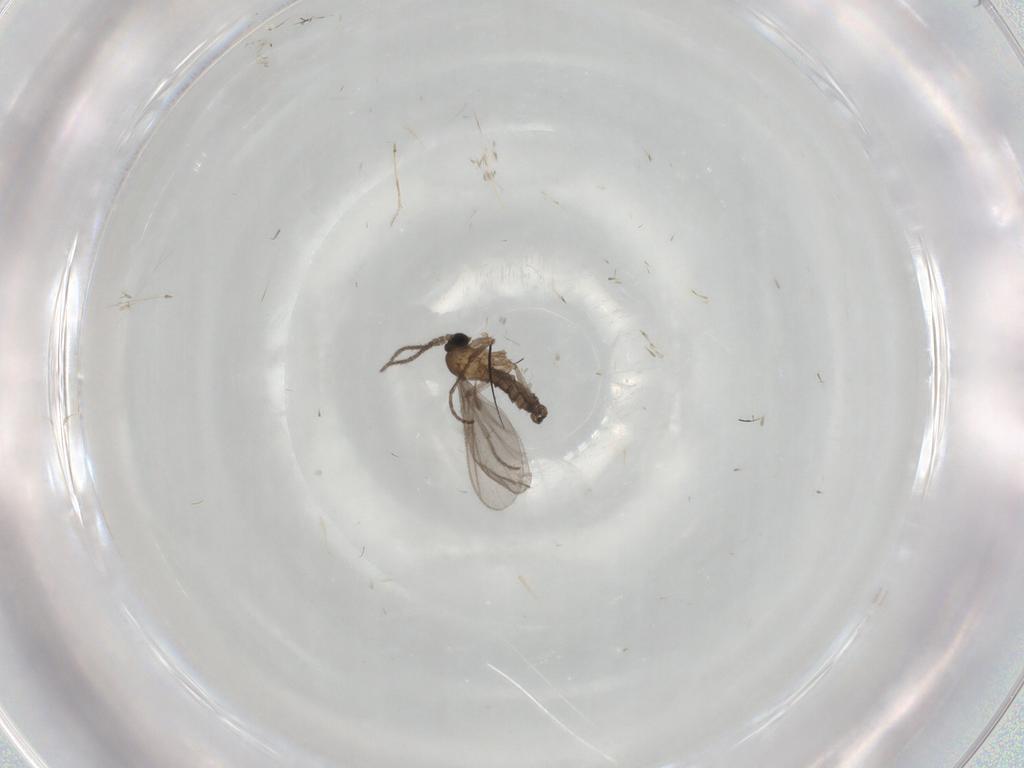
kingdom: Animalia
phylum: Arthropoda
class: Insecta
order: Diptera
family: Sciaridae
